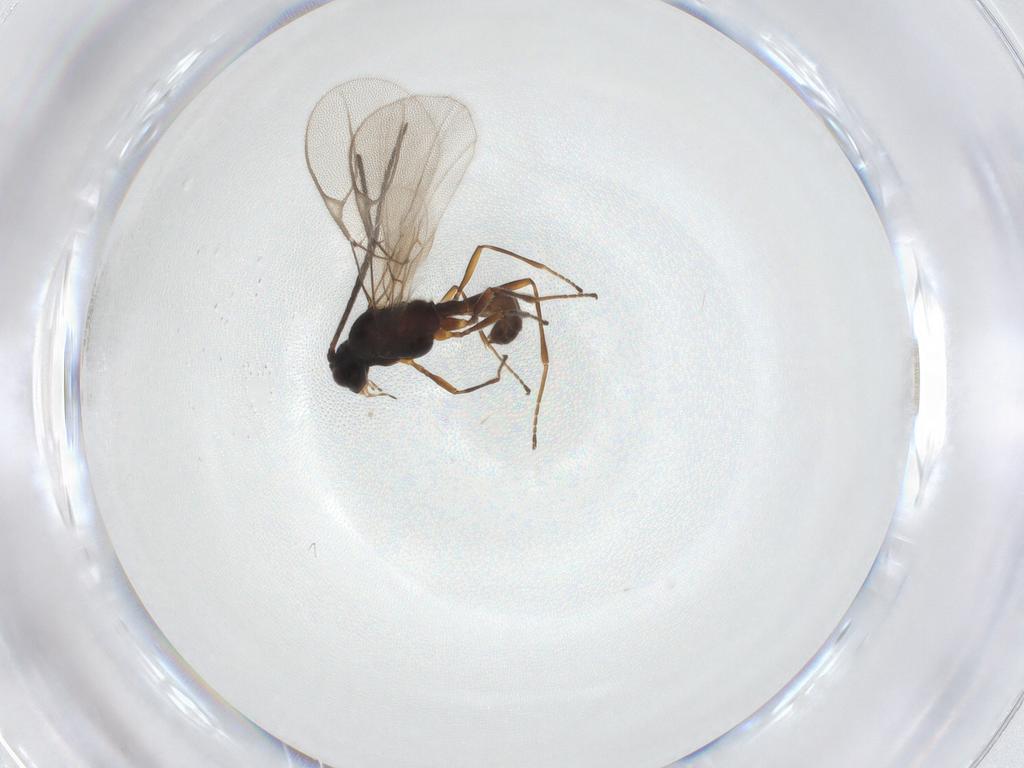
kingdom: Animalia
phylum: Arthropoda
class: Insecta
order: Hymenoptera
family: Braconidae
